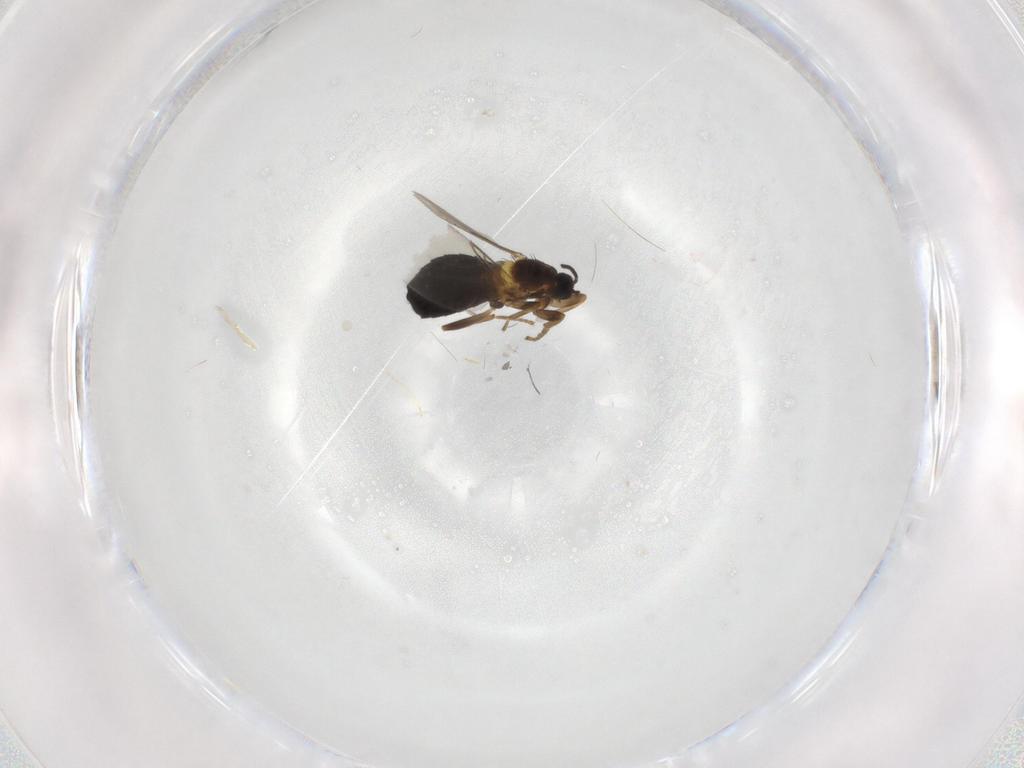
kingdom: Animalia
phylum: Arthropoda
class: Insecta
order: Diptera
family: Scatopsidae
